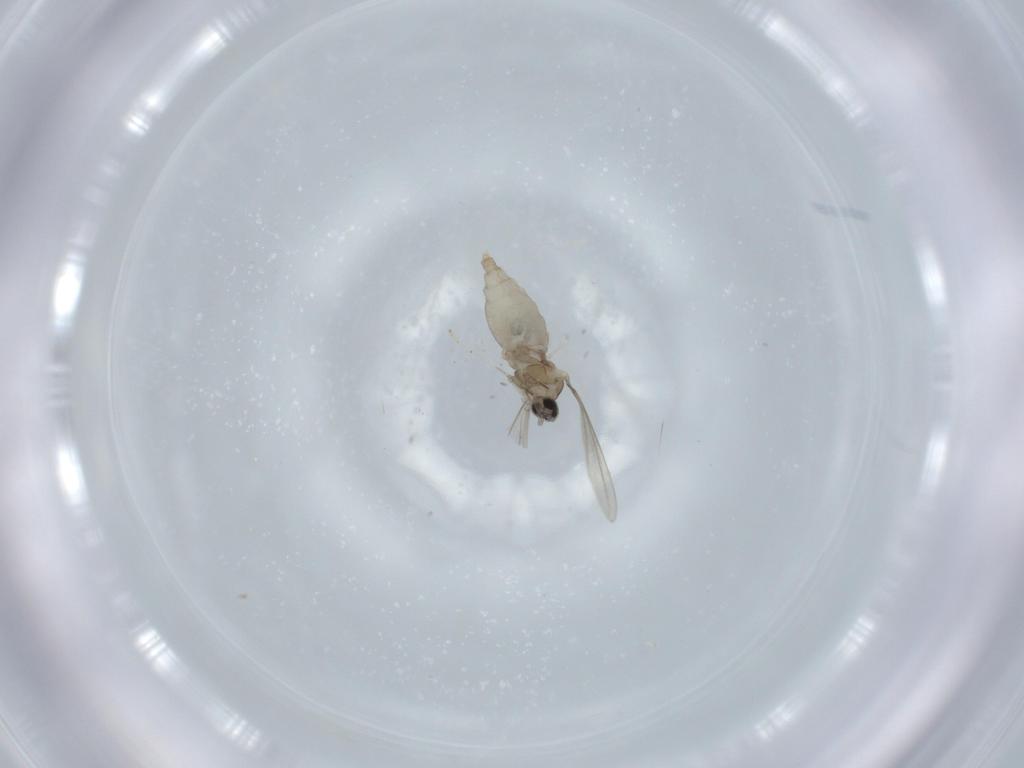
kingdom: Animalia
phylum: Arthropoda
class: Insecta
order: Diptera
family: Cecidomyiidae
